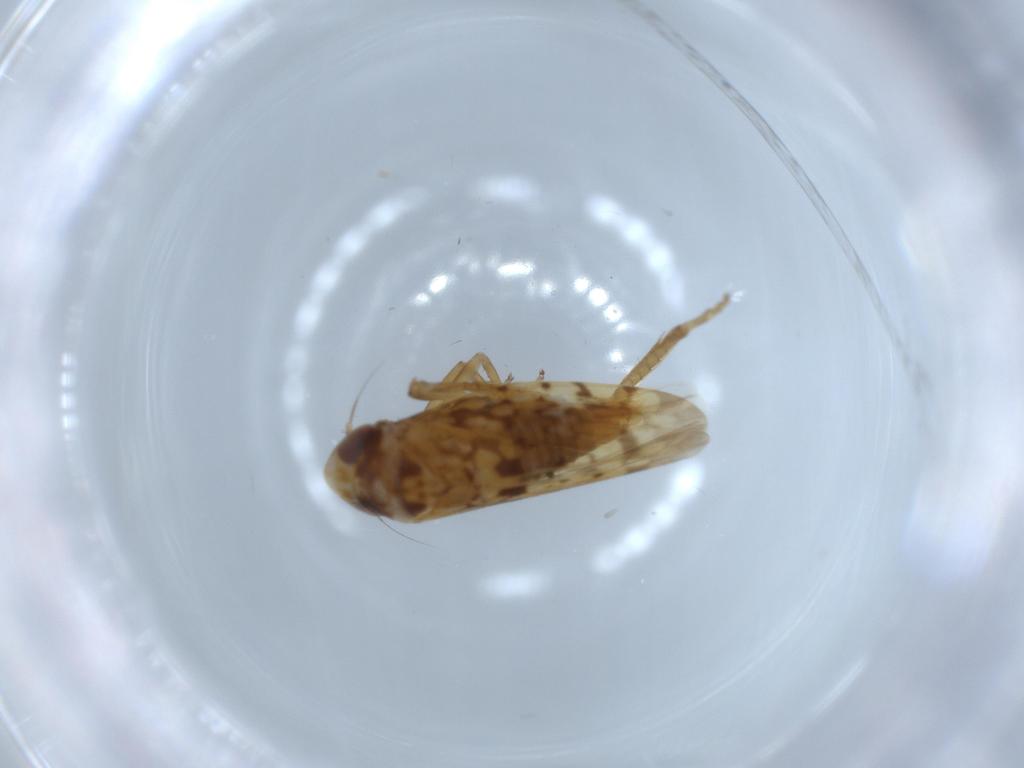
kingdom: Animalia
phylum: Arthropoda
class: Insecta
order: Hemiptera
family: Cicadellidae
